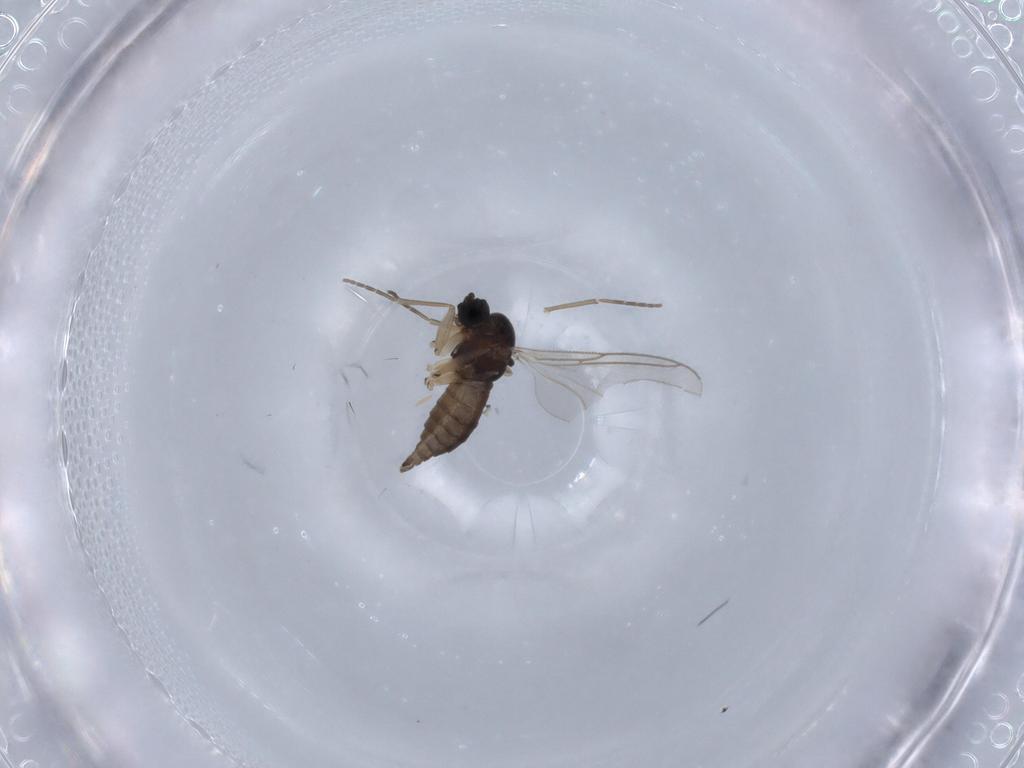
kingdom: Animalia
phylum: Arthropoda
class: Insecta
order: Diptera
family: Sciaridae
